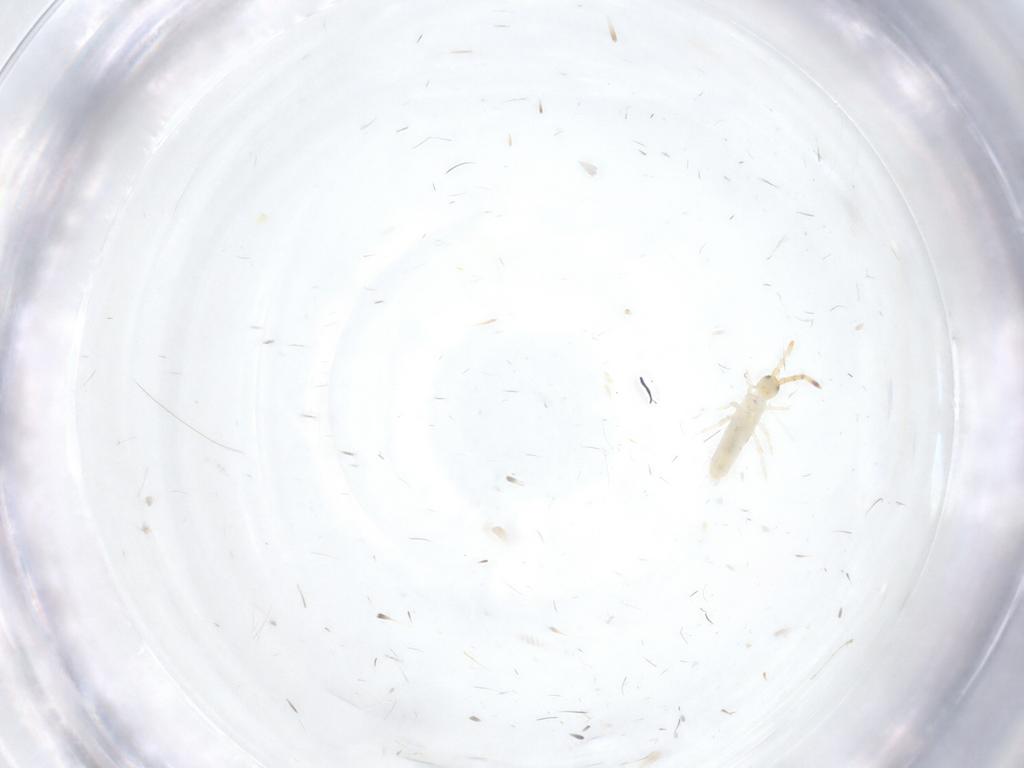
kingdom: Animalia
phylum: Arthropoda
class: Collembola
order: Entomobryomorpha
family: Entomobryidae
